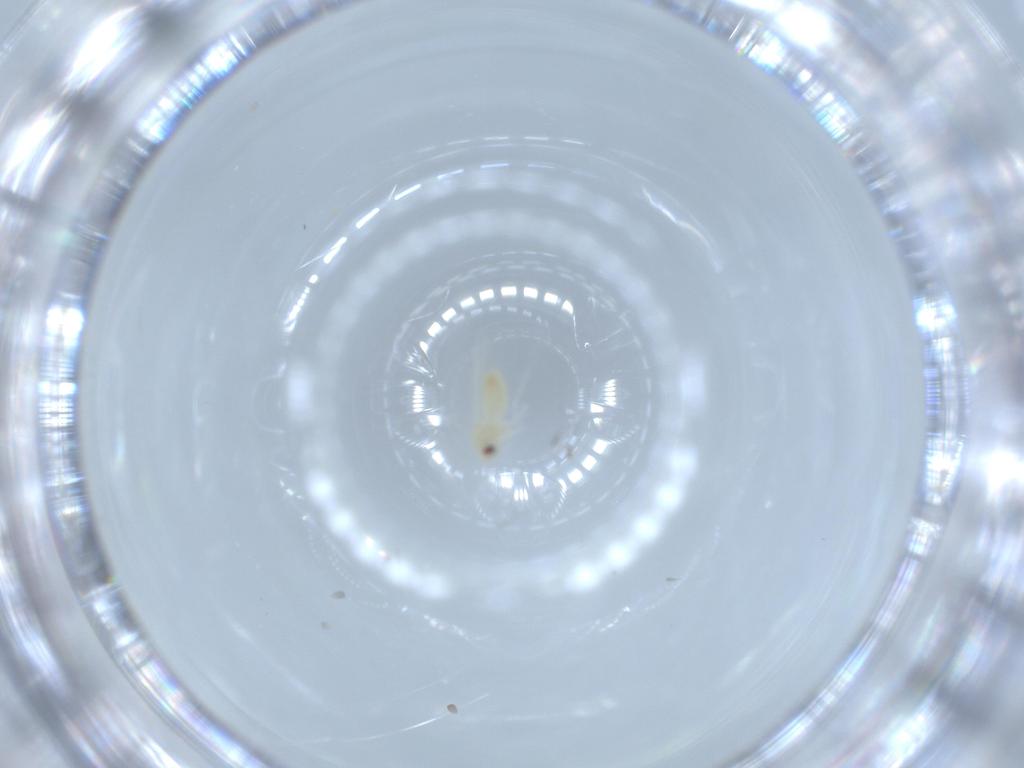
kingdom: Animalia
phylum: Arthropoda
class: Insecta
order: Hemiptera
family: Aleyrodidae
